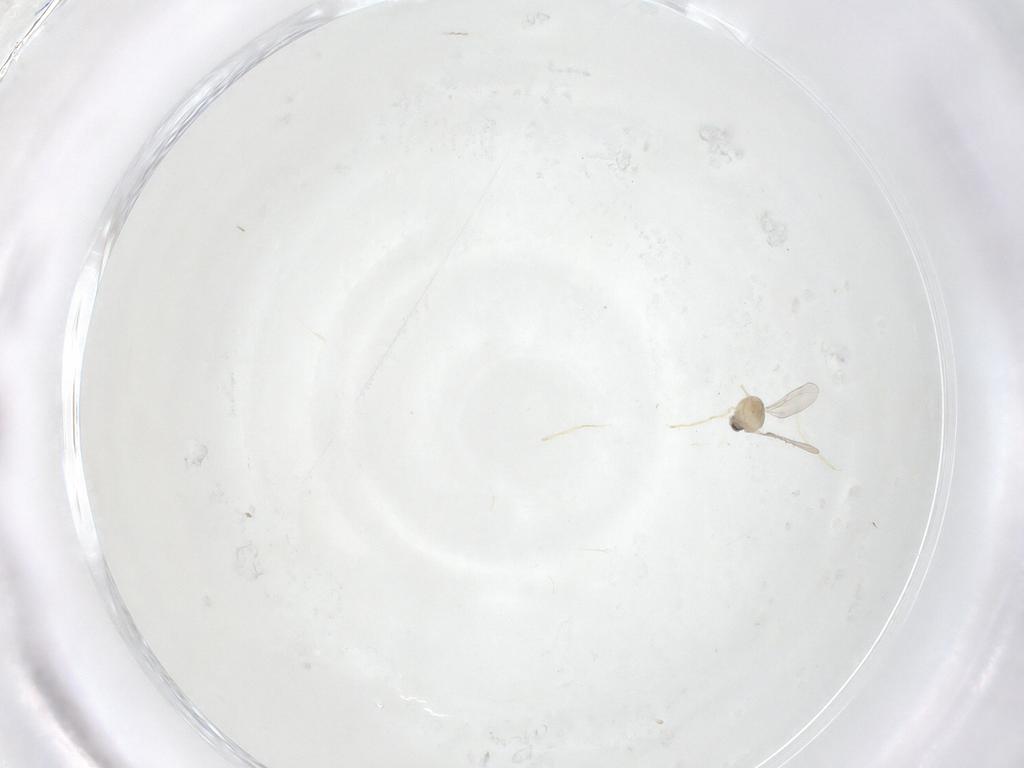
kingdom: Animalia
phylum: Arthropoda
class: Insecta
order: Diptera
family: Cecidomyiidae
